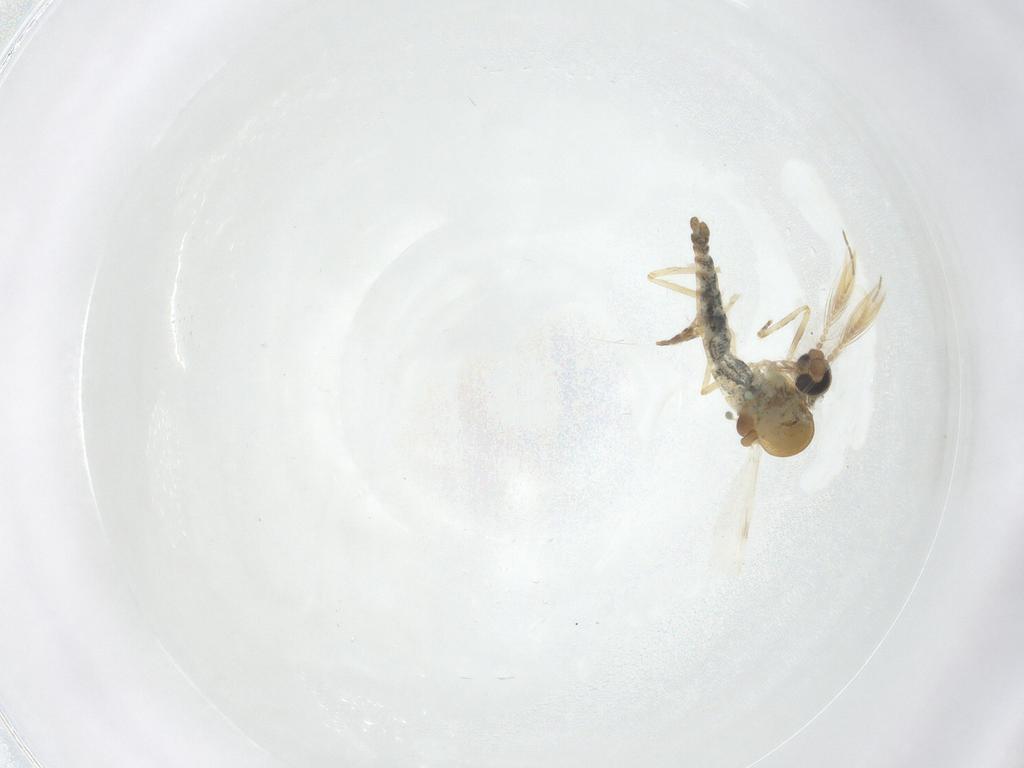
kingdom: Animalia
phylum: Arthropoda
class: Insecta
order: Diptera
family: Ceratopogonidae
